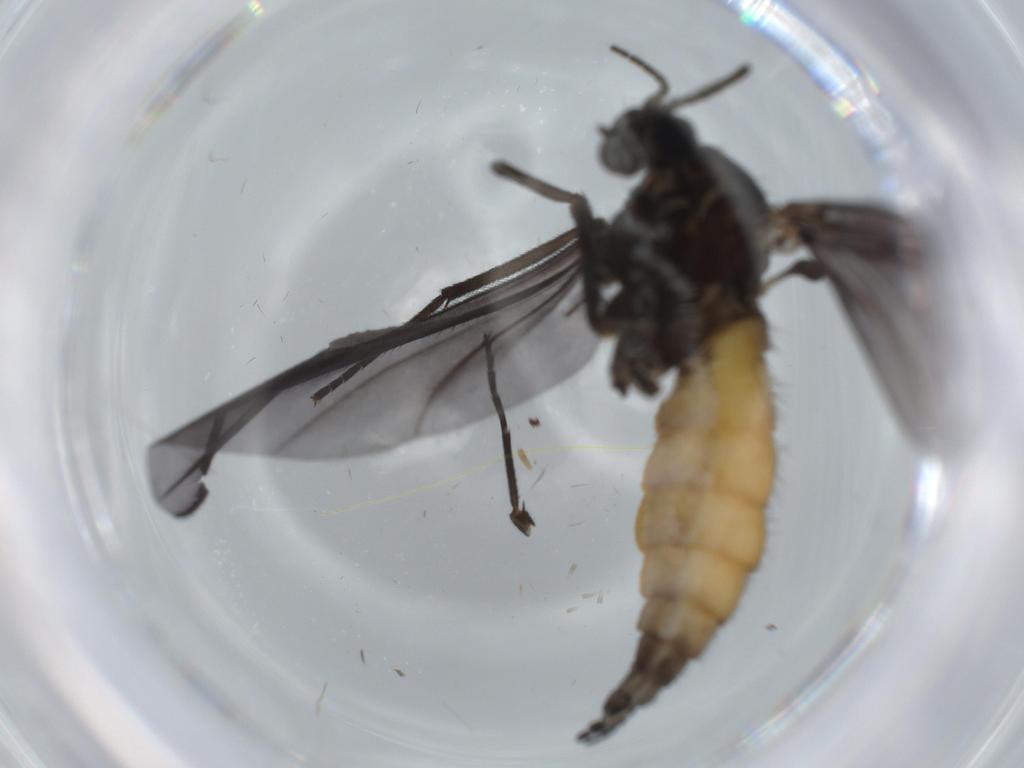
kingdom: Animalia
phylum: Arthropoda
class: Insecta
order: Diptera
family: Sciaridae
